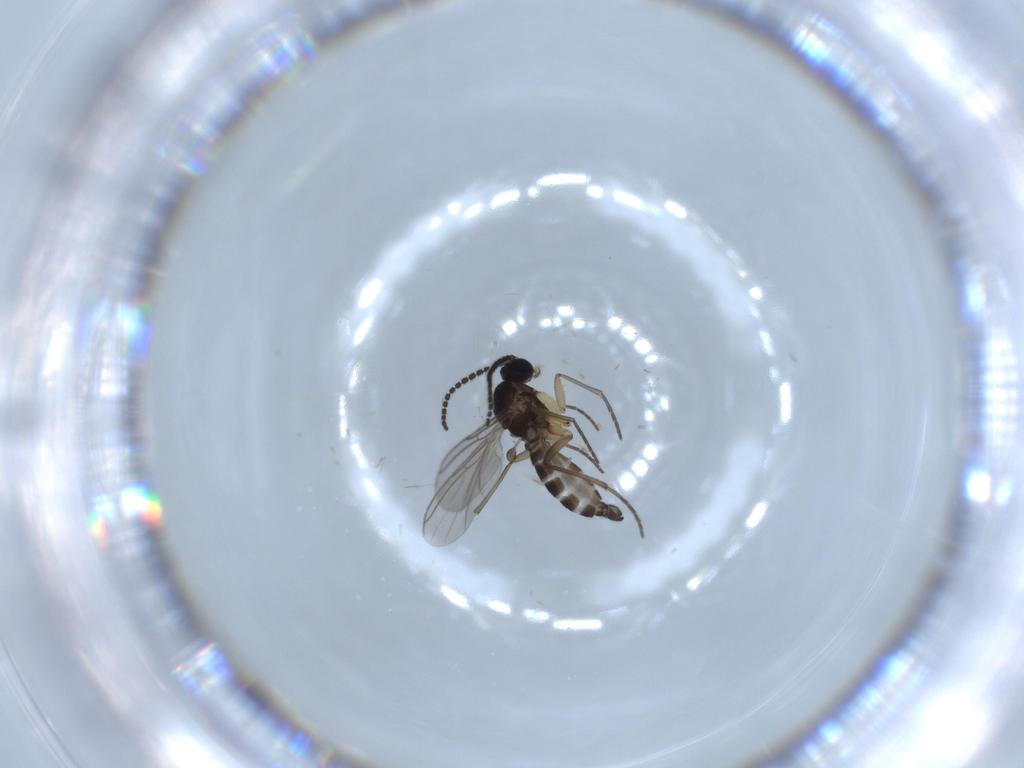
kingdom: Animalia
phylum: Arthropoda
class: Insecta
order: Diptera
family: Sciaridae
